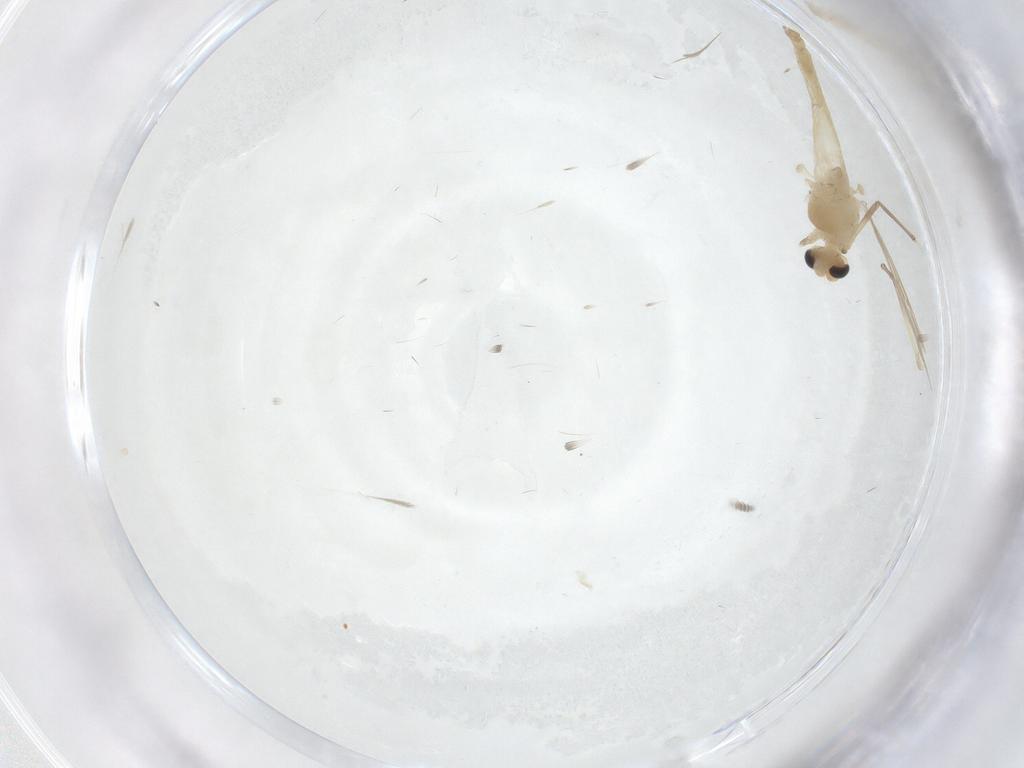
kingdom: Animalia
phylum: Arthropoda
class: Insecta
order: Diptera
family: Chironomidae
